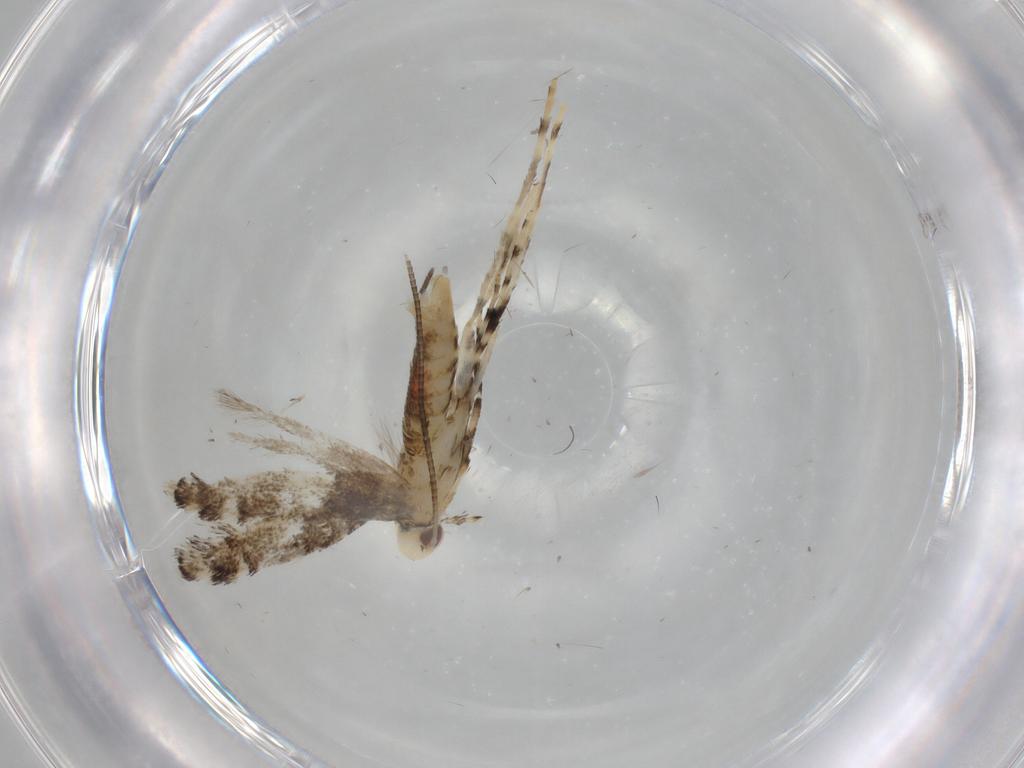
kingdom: Animalia
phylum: Arthropoda
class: Insecta
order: Lepidoptera
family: Gracillariidae
